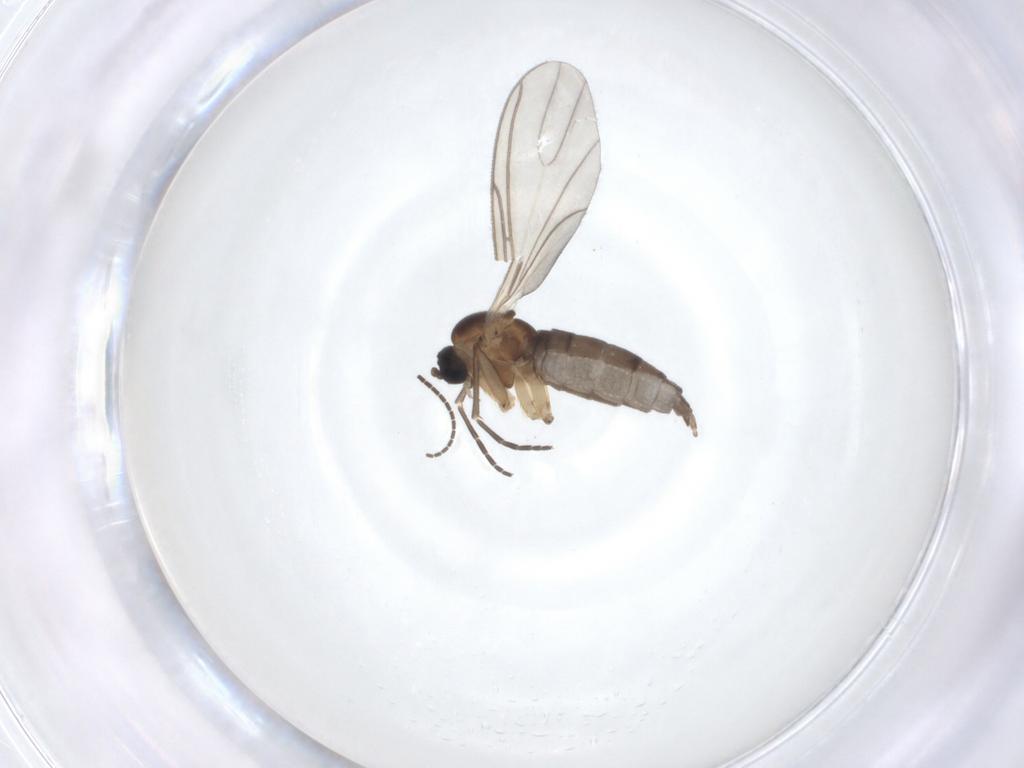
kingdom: Animalia
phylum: Arthropoda
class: Insecta
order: Diptera
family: Sciaridae
